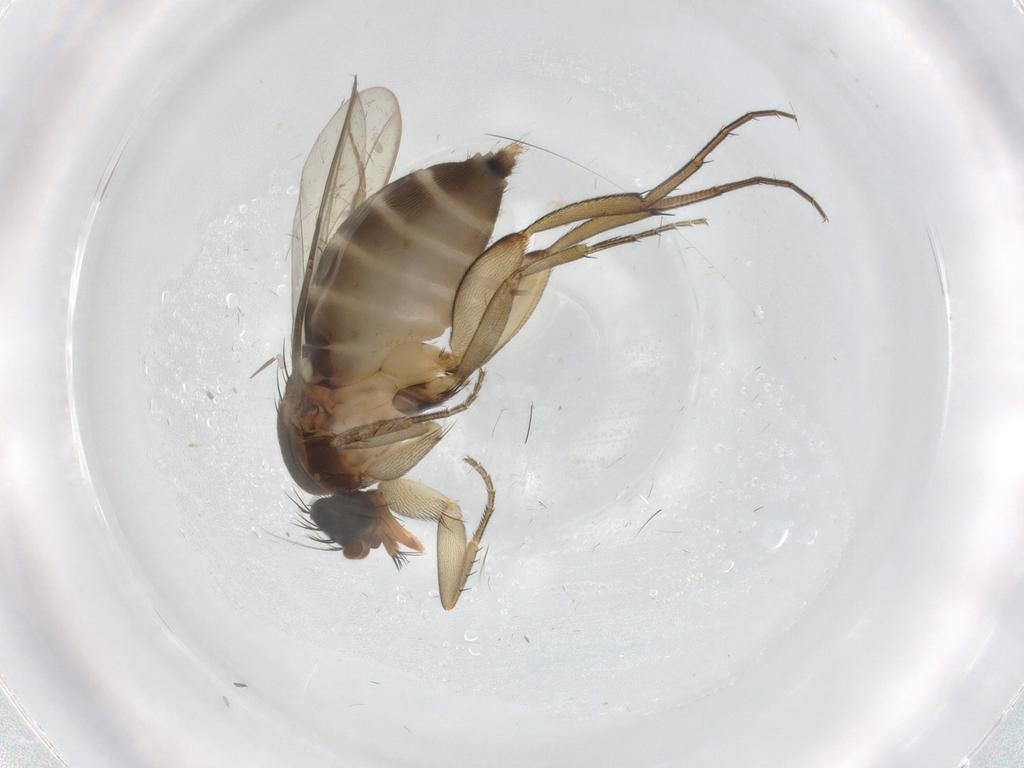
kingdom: Animalia
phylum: Arthropoda
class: Insecta
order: Diptera
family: Phoridae
